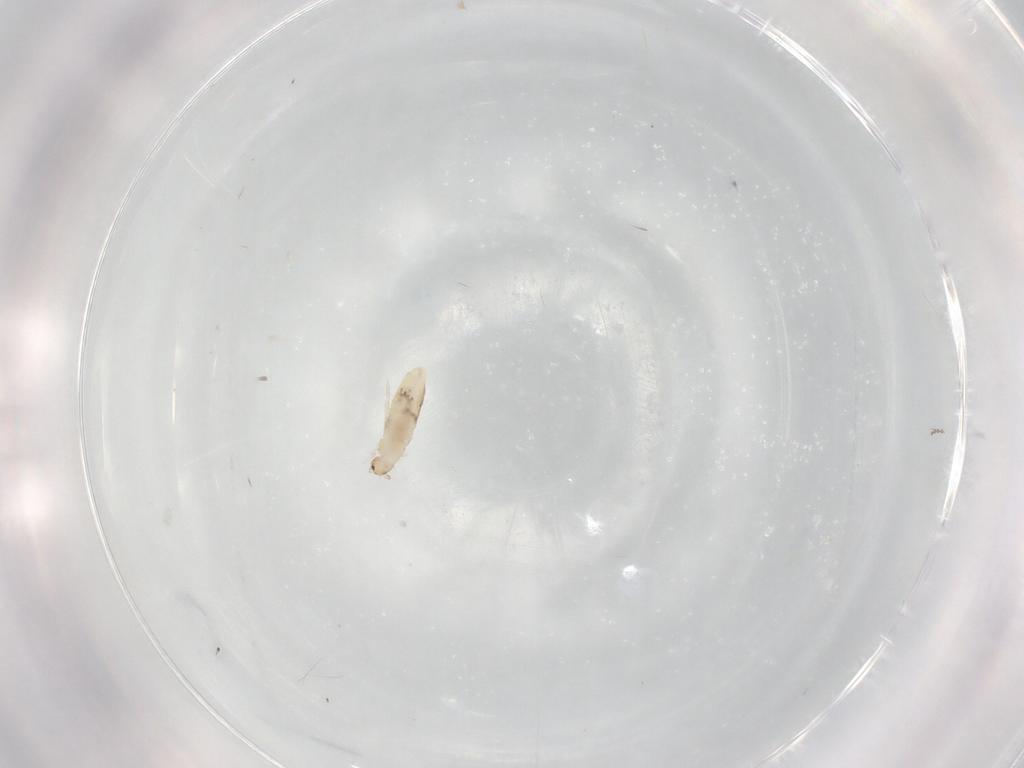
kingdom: Animalia
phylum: Arthropoda
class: Collembola
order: Entomobryomorpha
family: Entomobryidae
